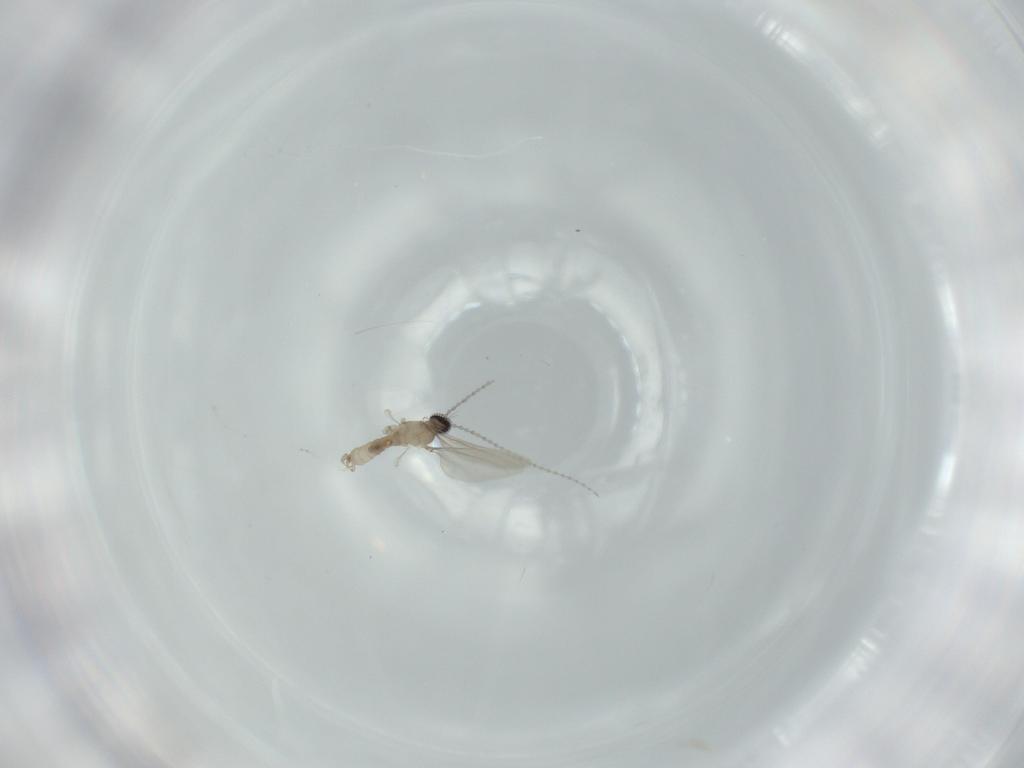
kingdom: Animalia
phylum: Arthropoda
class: Insecta
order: Diptera
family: Cecidomyiidae
